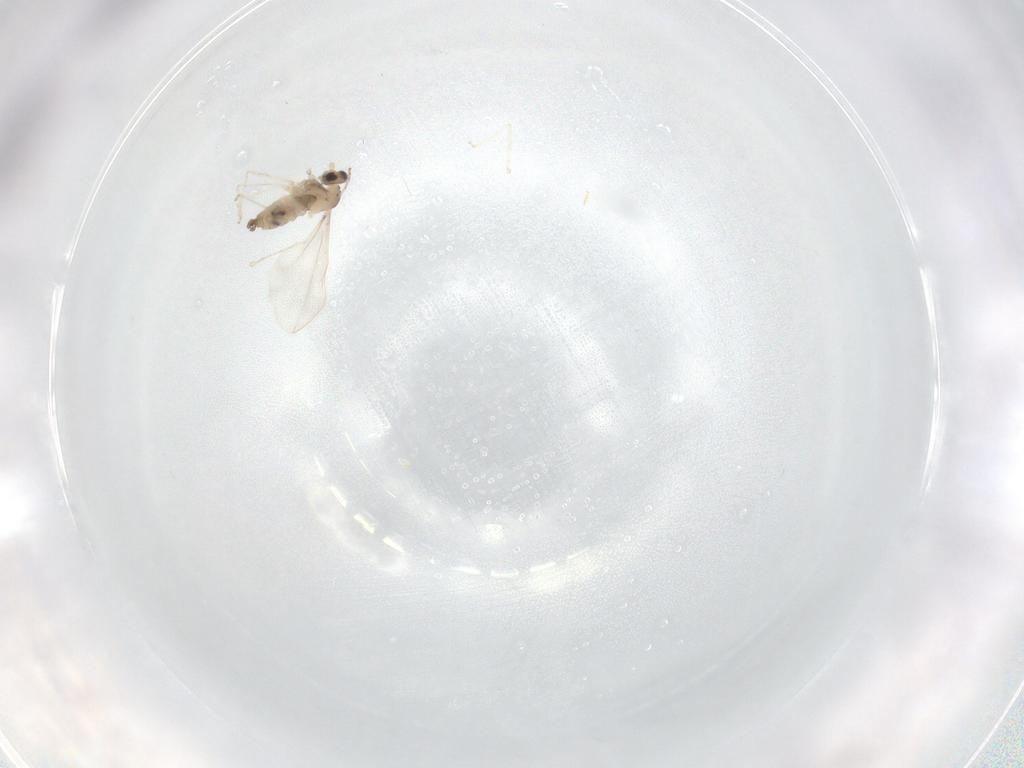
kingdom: Animalia
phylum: Arthropoda
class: Insecta
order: Diptera
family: Cecidomyiidae
